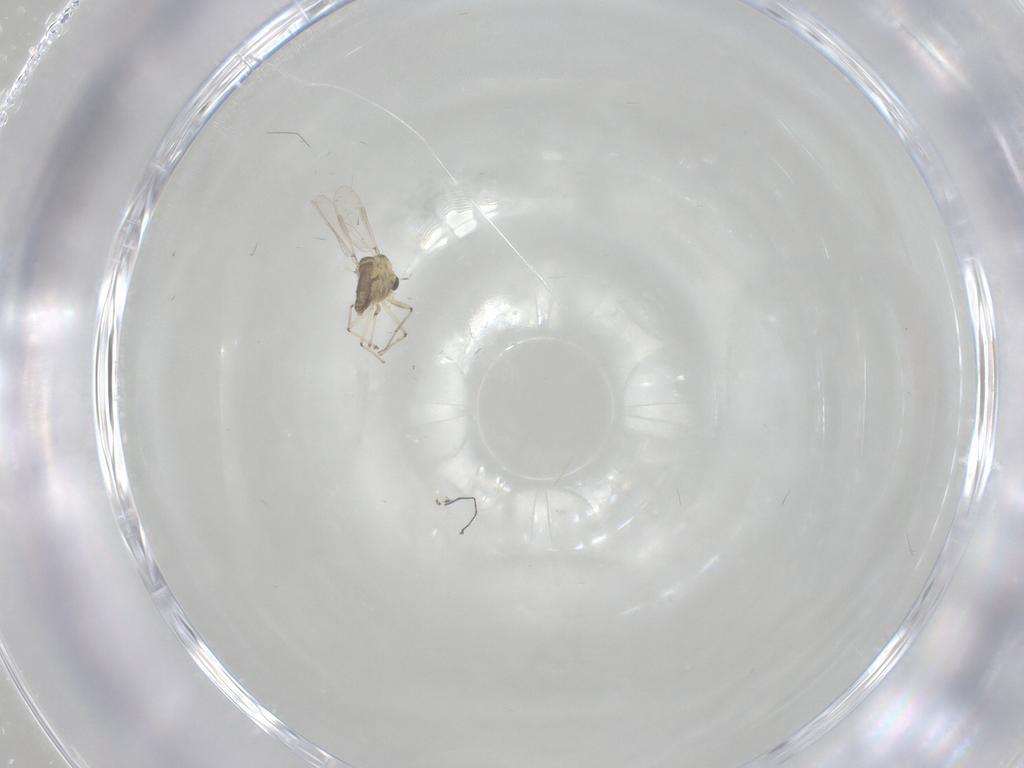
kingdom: Animalia
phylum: Arthropoda
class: Insecta
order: Diptera
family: Chironomidae
